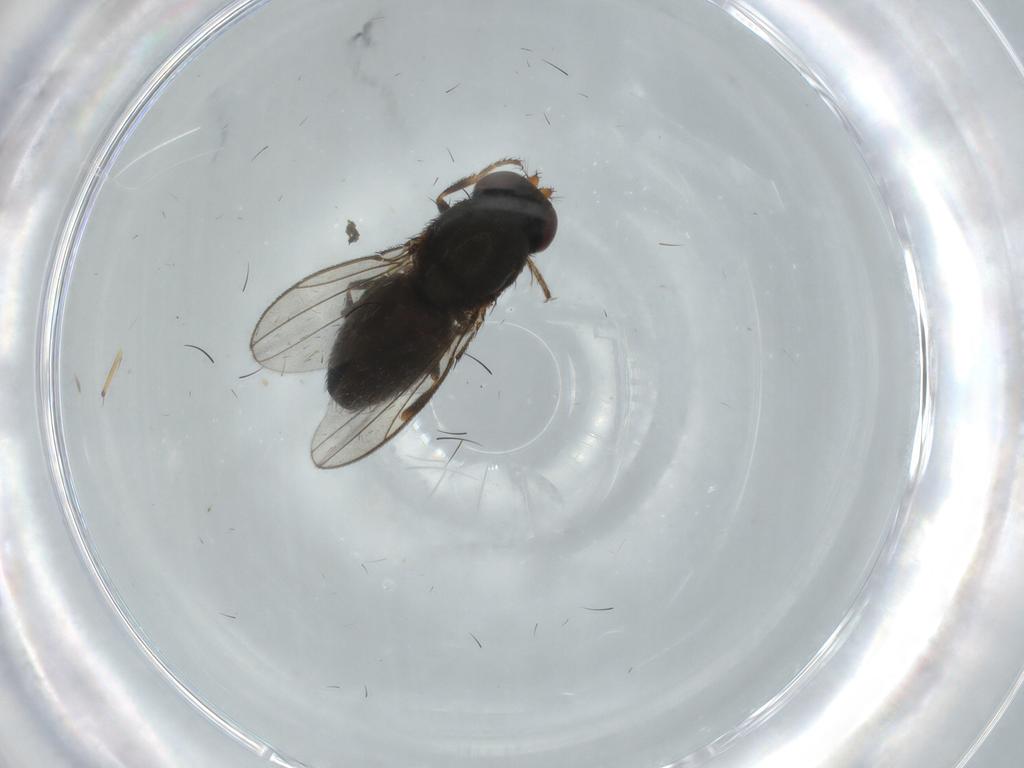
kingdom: Animalia
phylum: Arthropoda
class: Insecta
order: Diptera
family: Ephydridae
